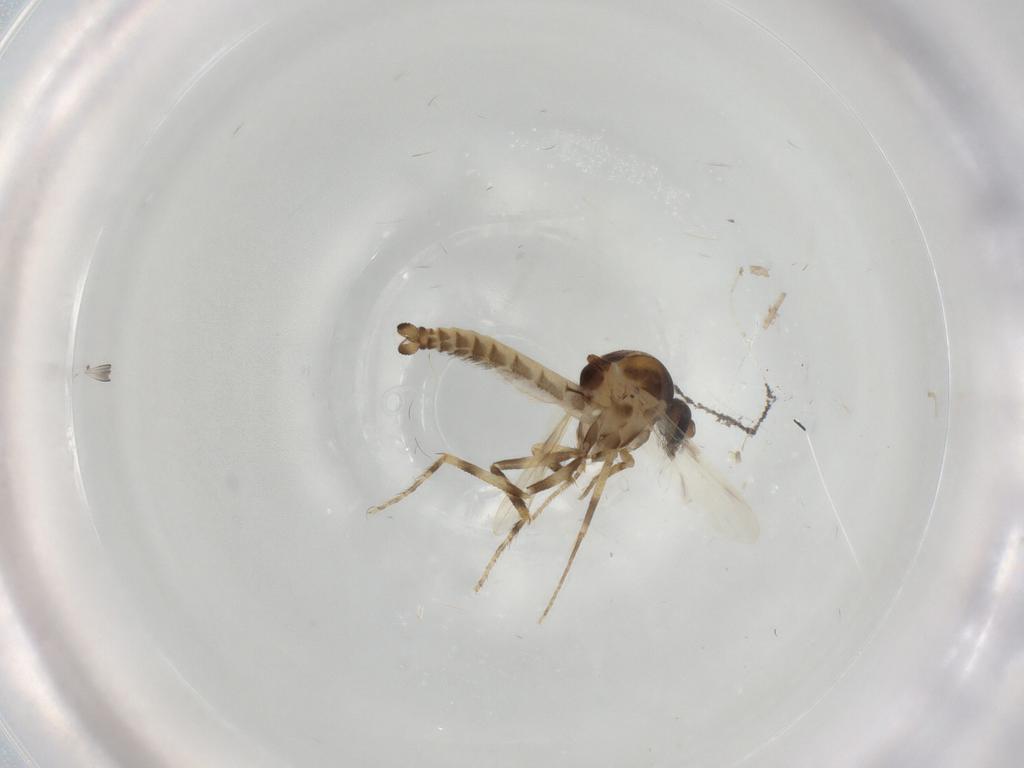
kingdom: Animalia
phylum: Arthropoda
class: Insecta
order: Diptera
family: Ceratopogonidae
